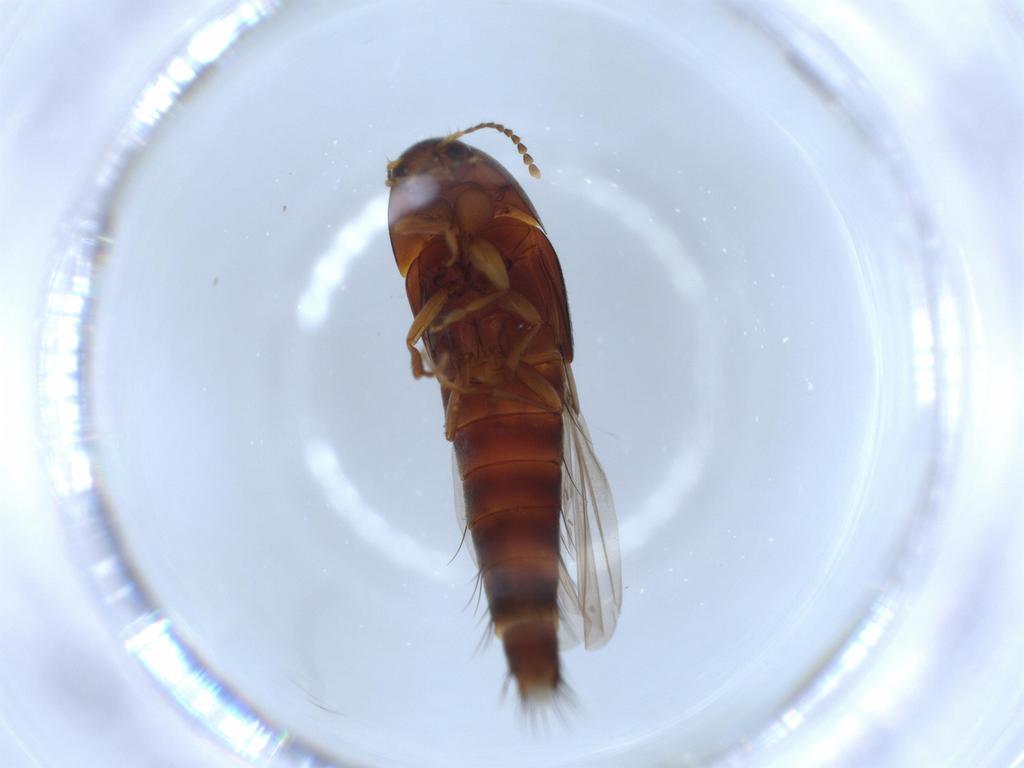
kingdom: Animalia
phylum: Arthropoda
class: Insecta
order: Coleoptera
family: Staphylinidae
